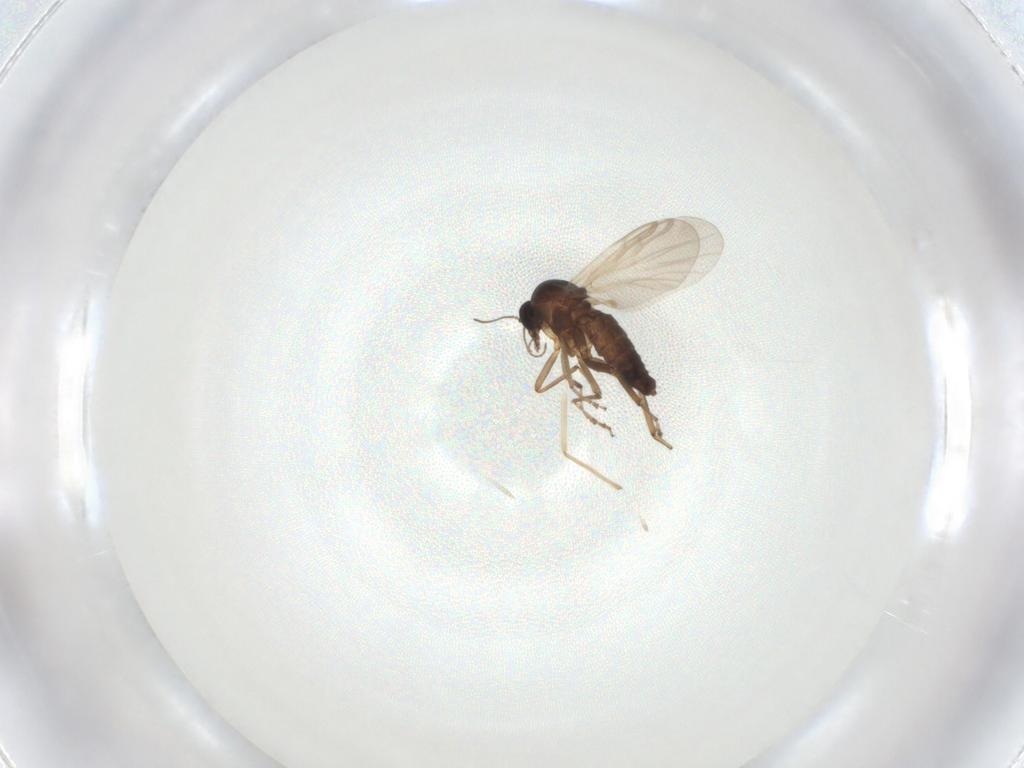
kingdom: Animalia
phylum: Arthropoda
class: Insecta
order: Diptera
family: Ceratopogonidae
